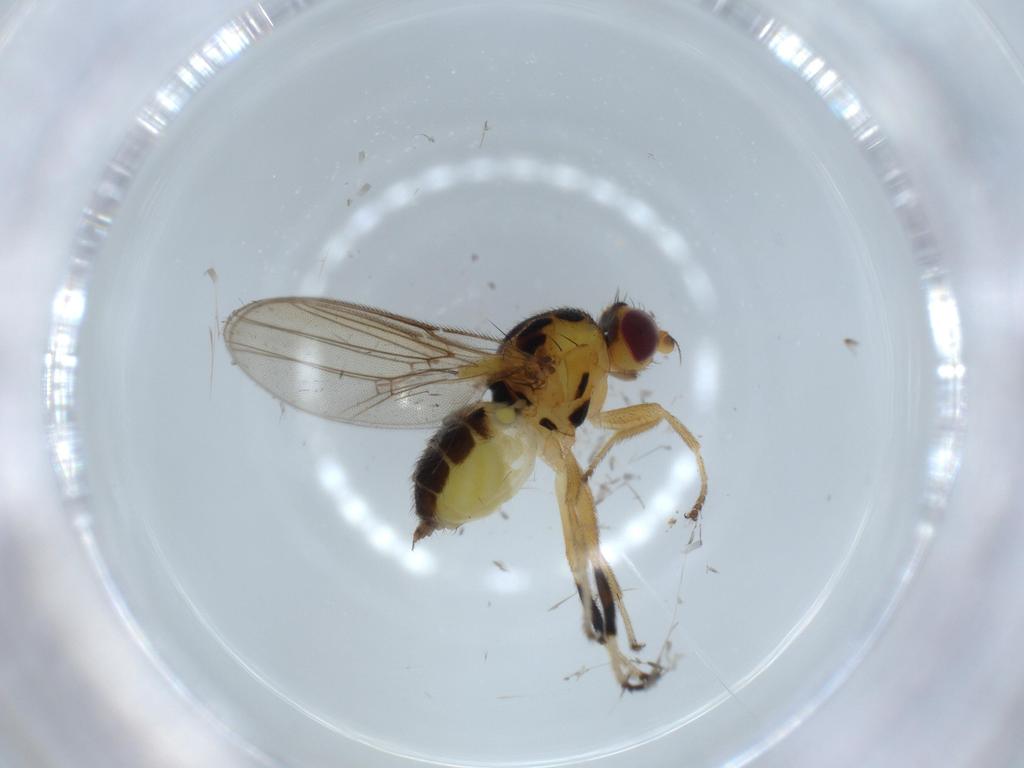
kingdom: Animalia
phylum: Arthropoda
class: Insecta
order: Diptera
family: Chloropidae
